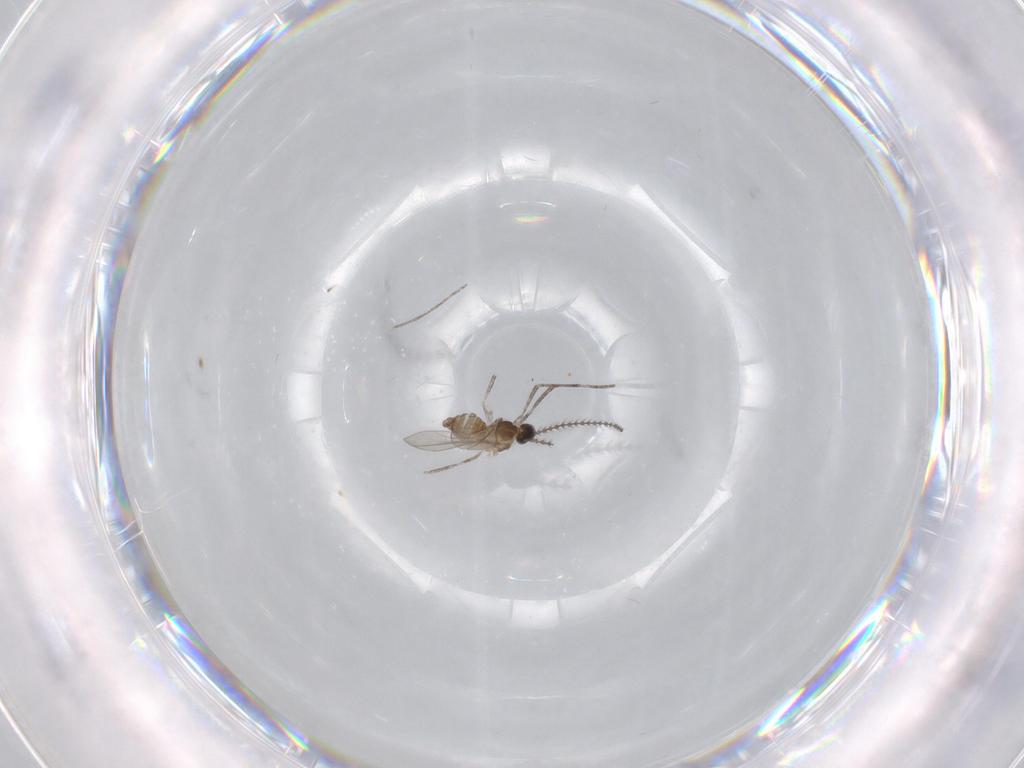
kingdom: Animalia
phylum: Arthropoda
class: Insecta
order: Diptera
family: Cecidomyiidae
